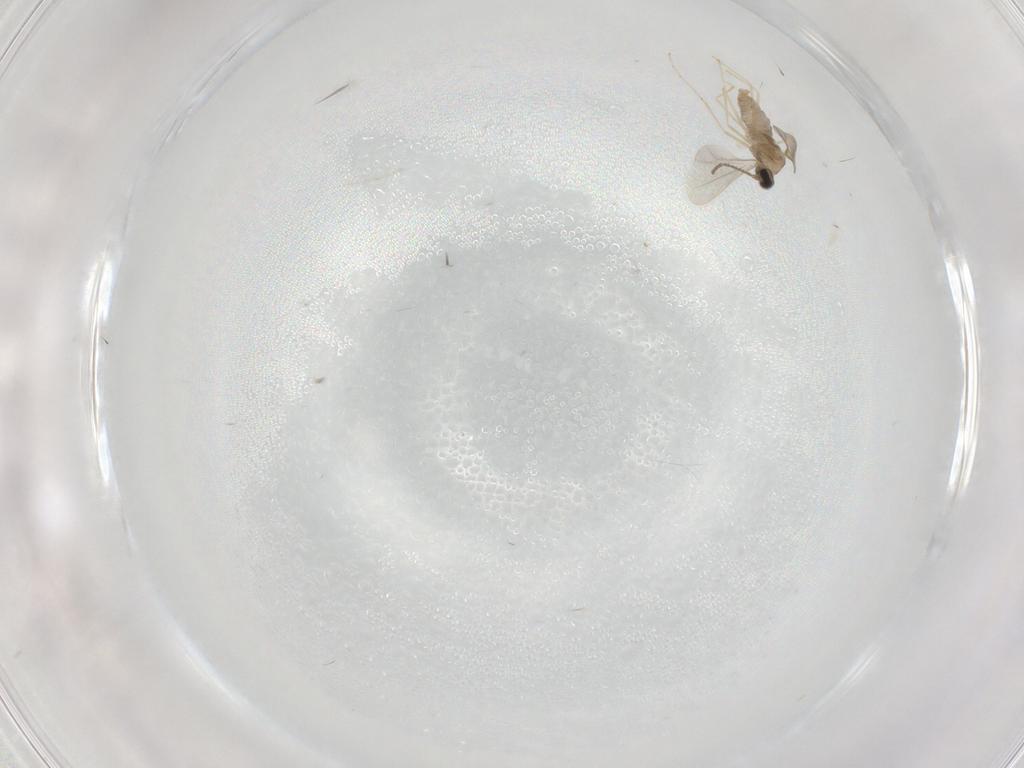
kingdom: Animalia
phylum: Arthropoda
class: Insecta
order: Diptera
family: Cecidomyiidae
